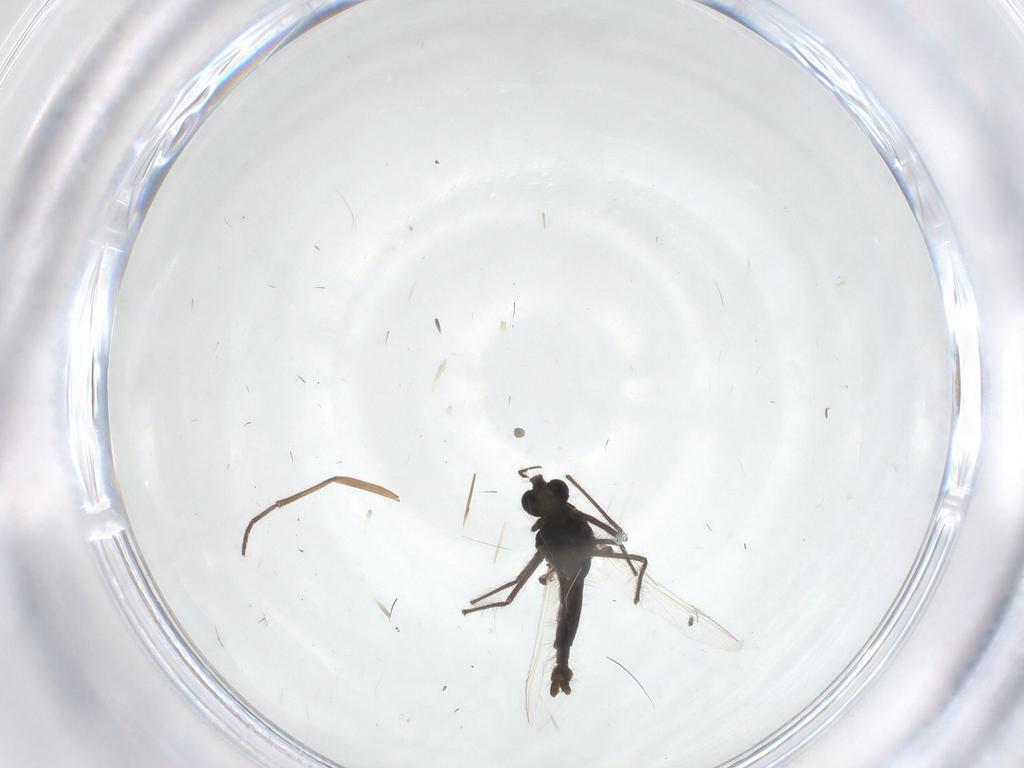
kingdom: Animalia
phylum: Arthropoda
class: Insecta
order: Diptera
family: Sciaridae
